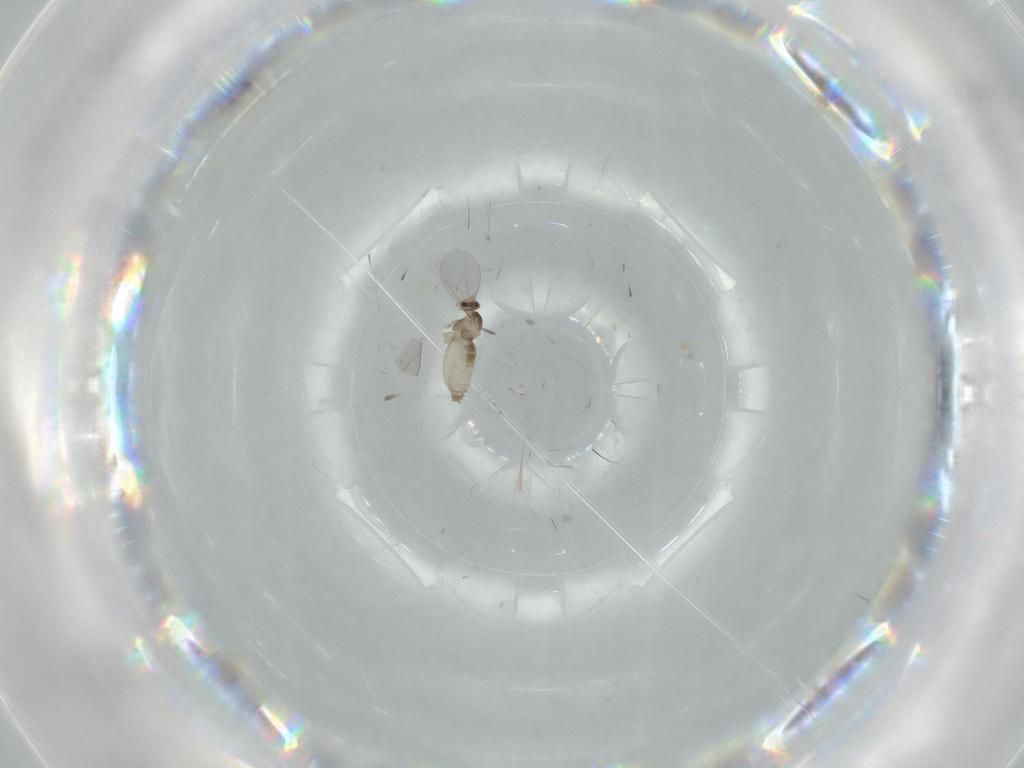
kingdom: Animalia
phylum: Arthropoda
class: Insecta
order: Diptera
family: Cecidomyiidae
